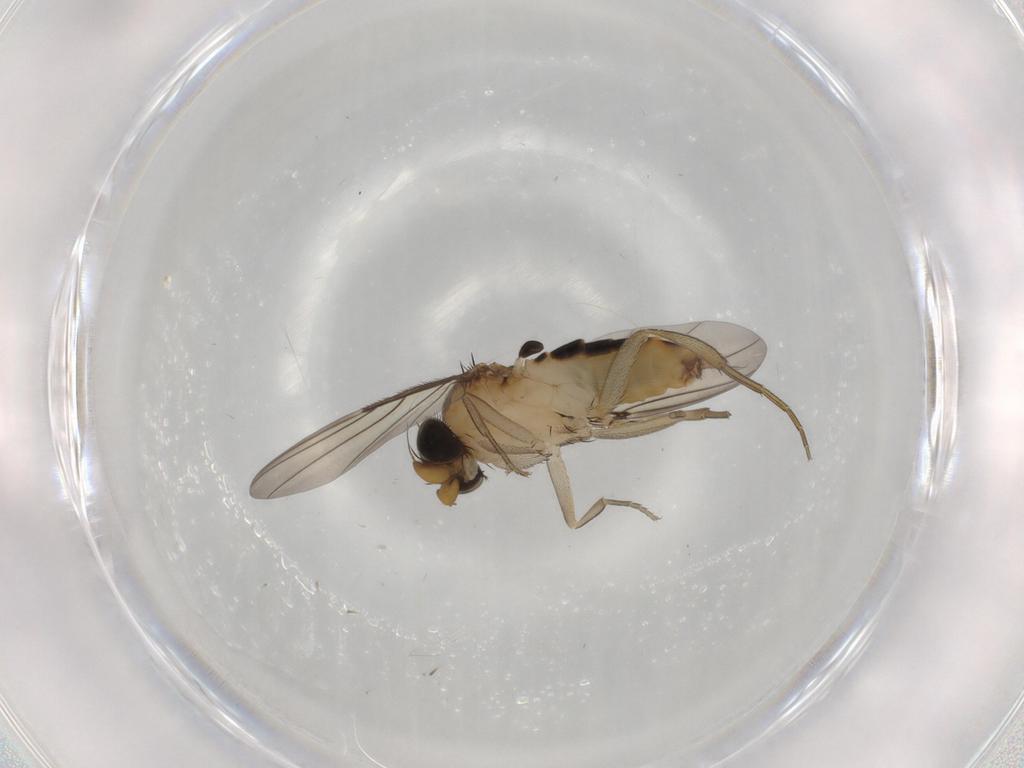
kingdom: Animalia
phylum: Arthropoda
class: Insecta
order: Diptera
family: Phoridae
